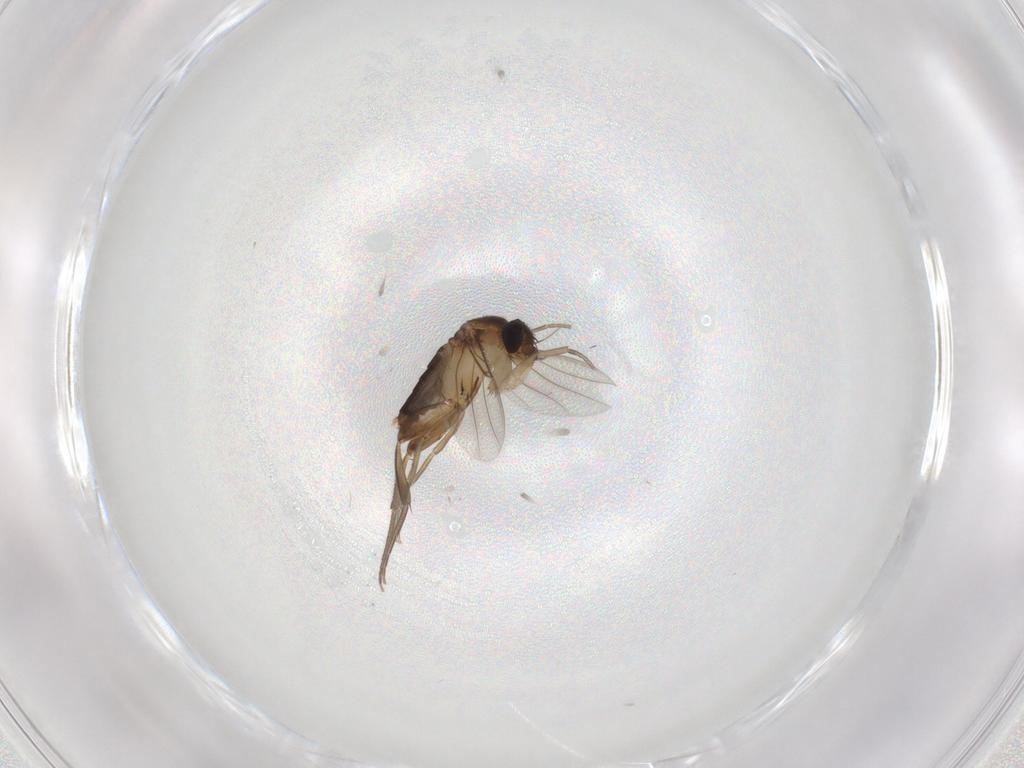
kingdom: Animalia
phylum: Arthropoda
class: Insecta
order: Diptera
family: Phoridae
